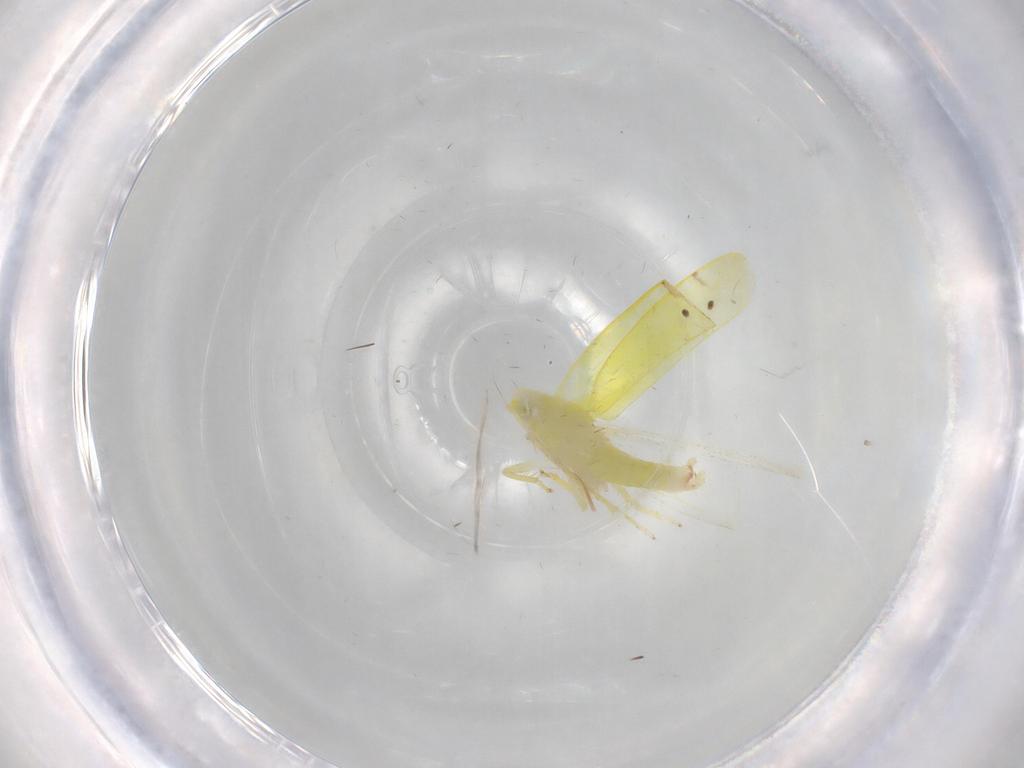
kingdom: Animalia
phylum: Arthropoda
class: Insecta
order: Hemiptera
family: Cicadellidae
